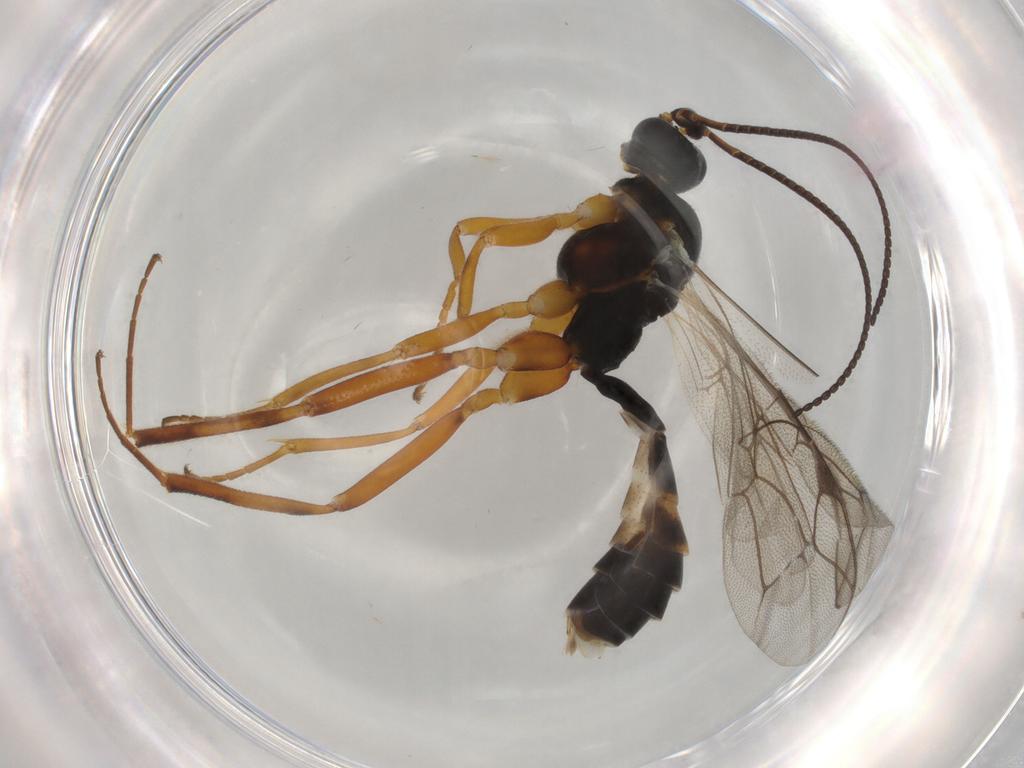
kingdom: Animalia
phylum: Arthropoda
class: Insecta
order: Hymenoptera
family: Ichneumonidae
